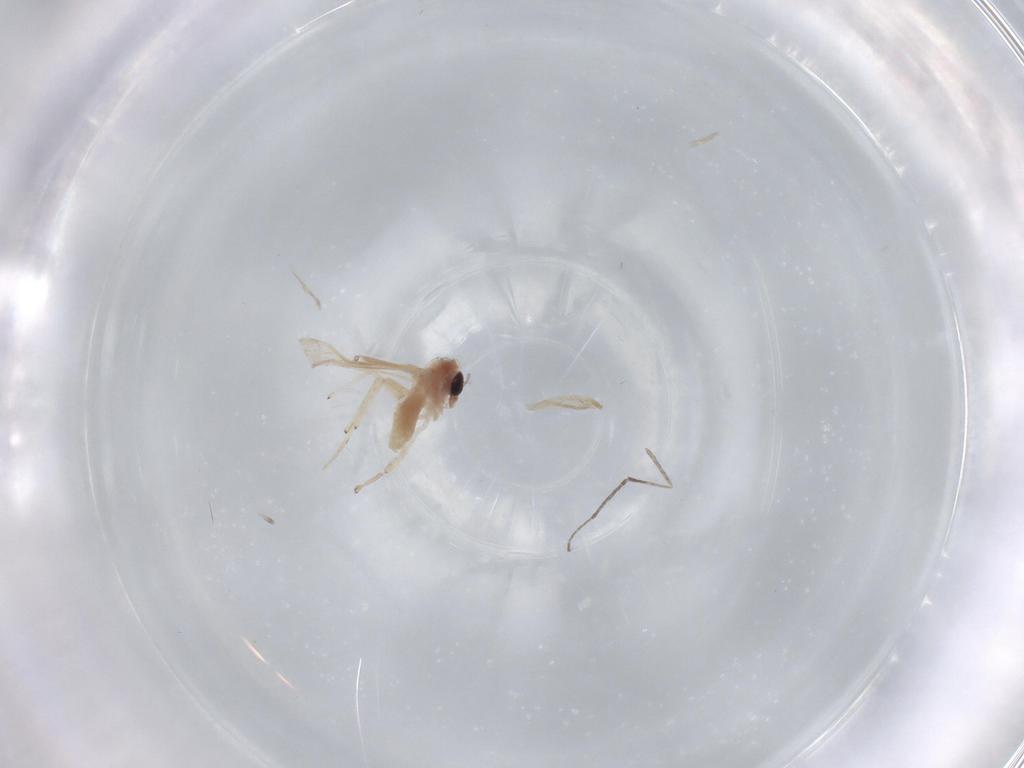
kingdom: Animalia
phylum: Arthropoda
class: Insecta
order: Diptera
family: Chironomidae
